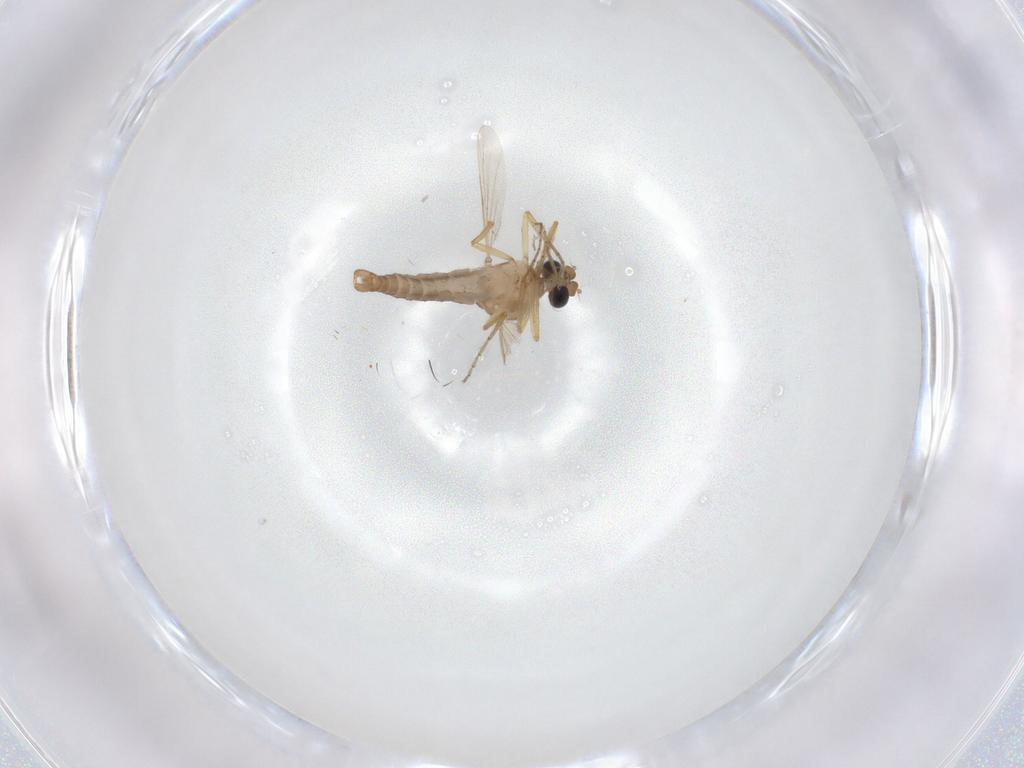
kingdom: Animalia
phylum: Arthropoda
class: Insecta
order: Diptera
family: Ceratopogonidae
